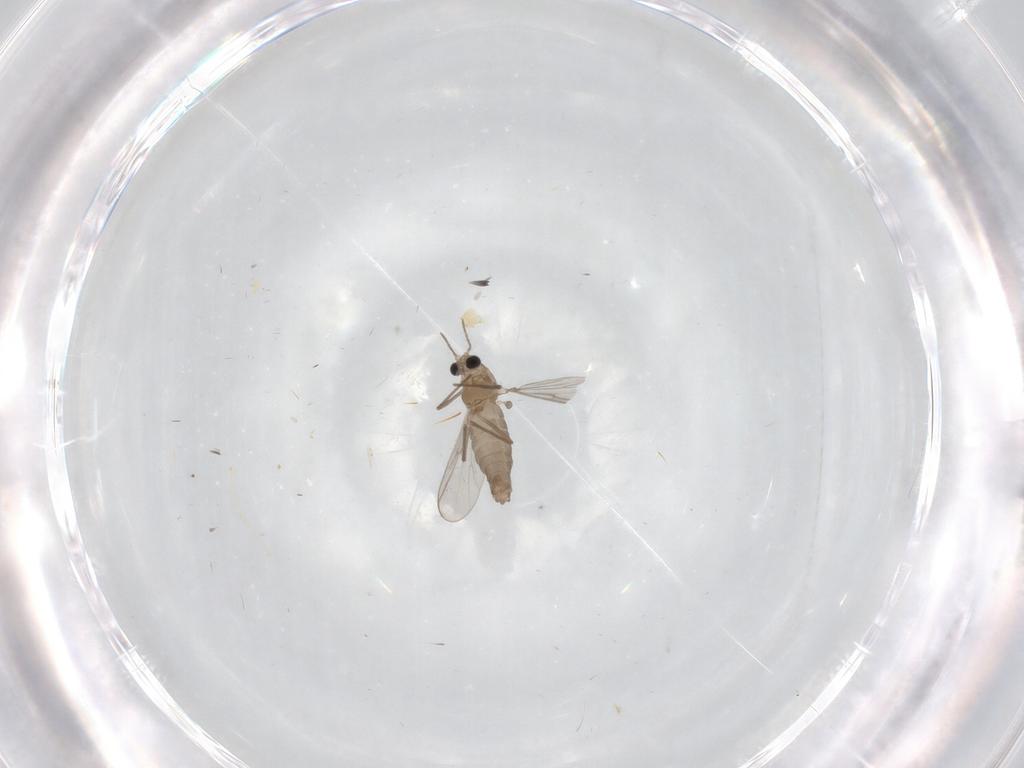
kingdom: Animalia
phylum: Arthropoda
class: Insecta
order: Diptera
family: Chironomidae
